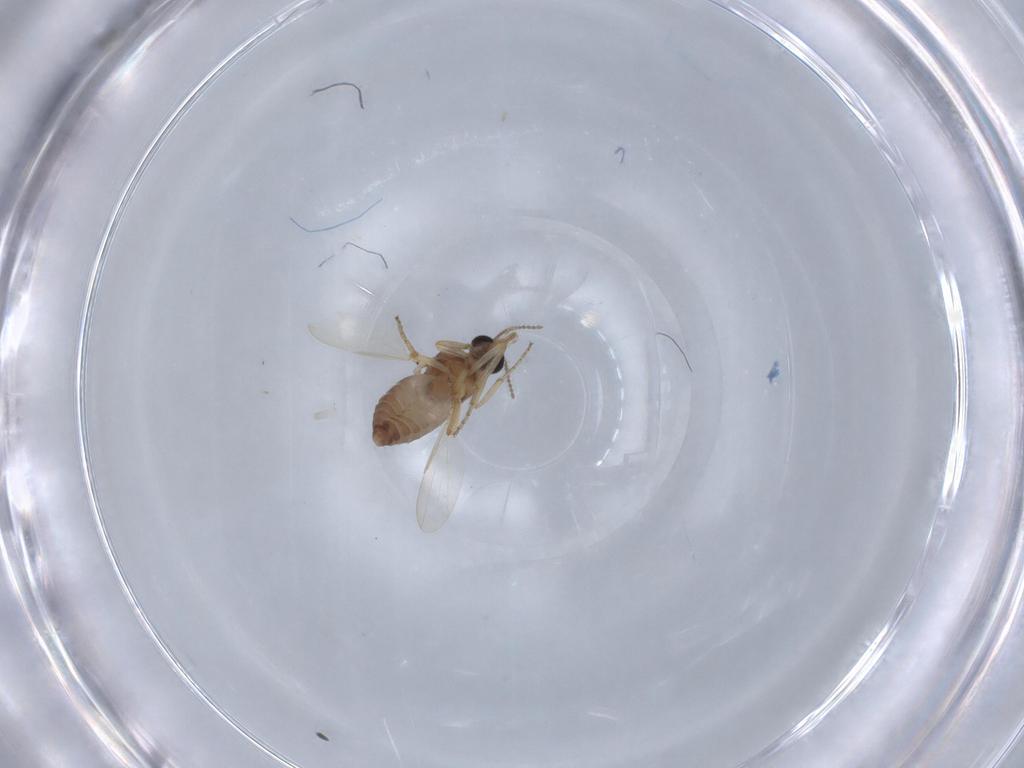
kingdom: Animalia
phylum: Arthropoda
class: Insecta
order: Diptera
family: Ceratopogonidae
